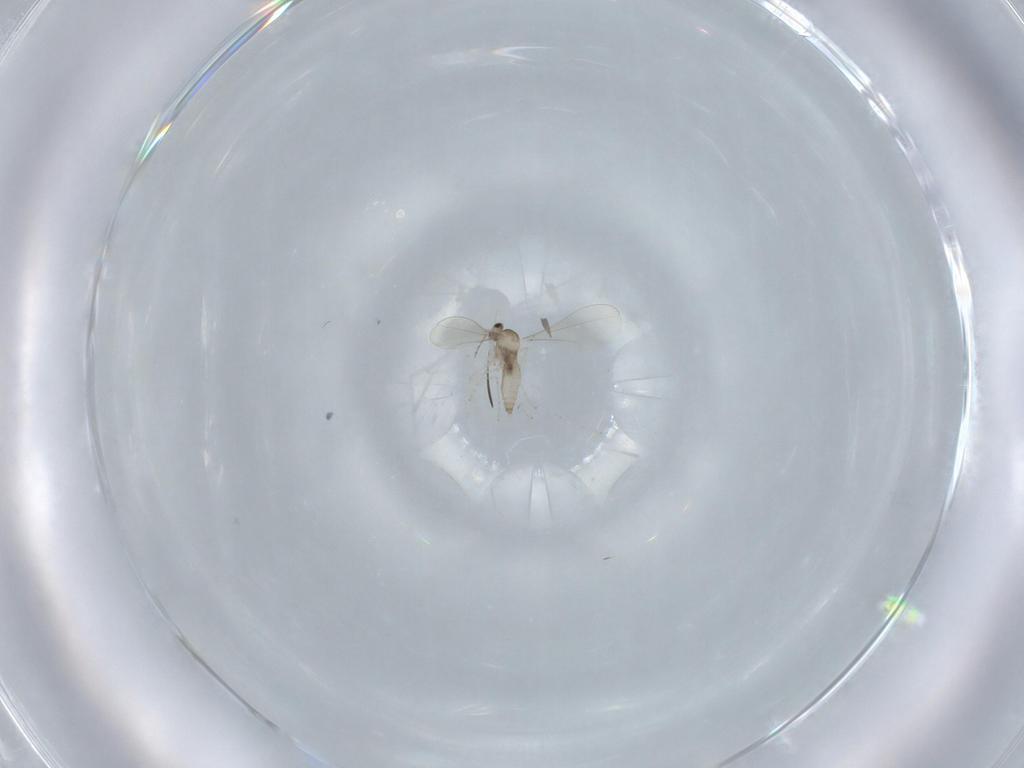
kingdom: Animalia
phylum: Arthropoda
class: Insecta
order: Diptera
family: Cecidomyiidae
